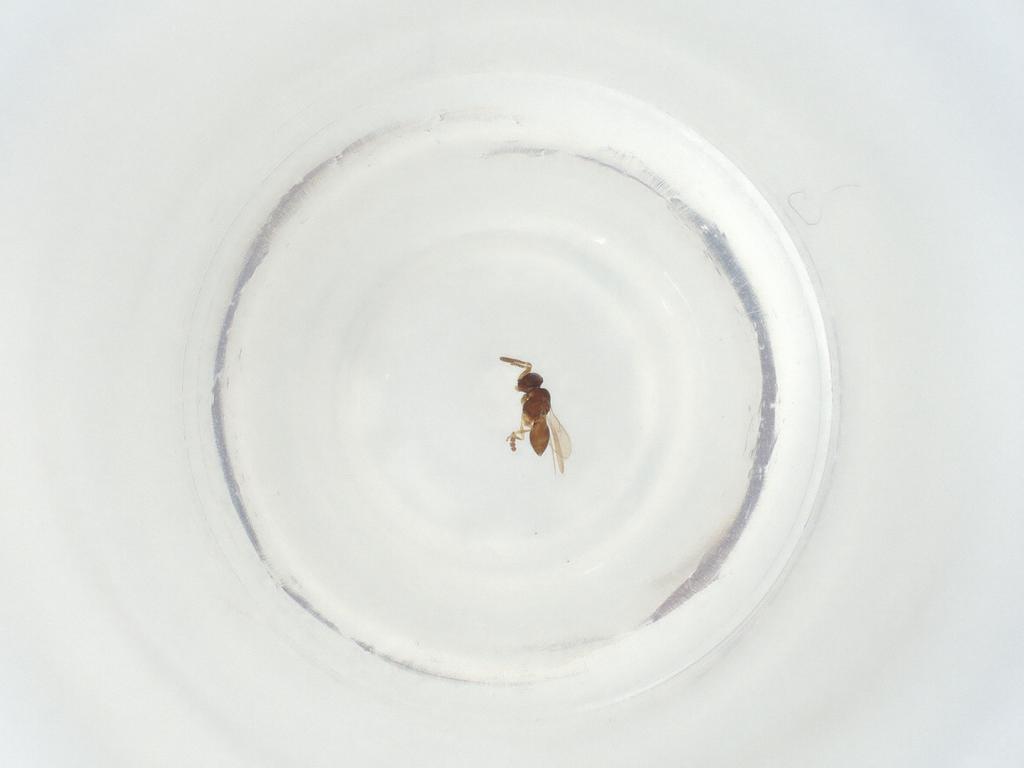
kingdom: Animalia
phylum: Arthropoda
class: Insecta
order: Hymenoptera
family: Scelionidae
